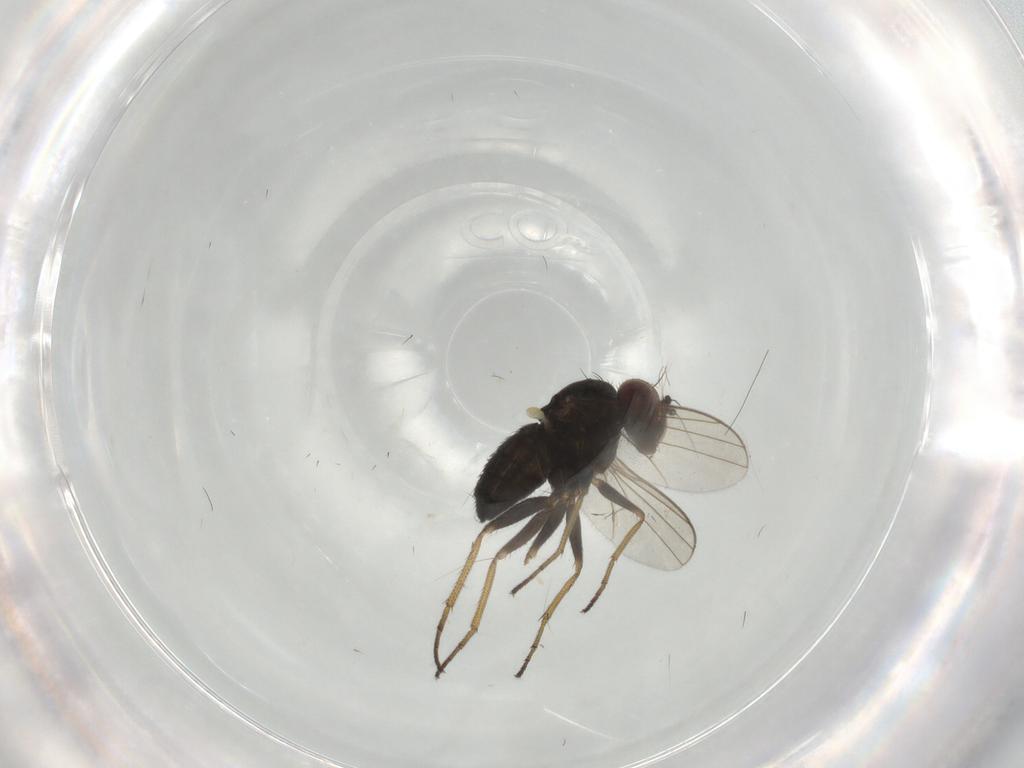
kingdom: Animalia
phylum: Arthropoda
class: Insecta
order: Diptera
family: Dolichopodidae
